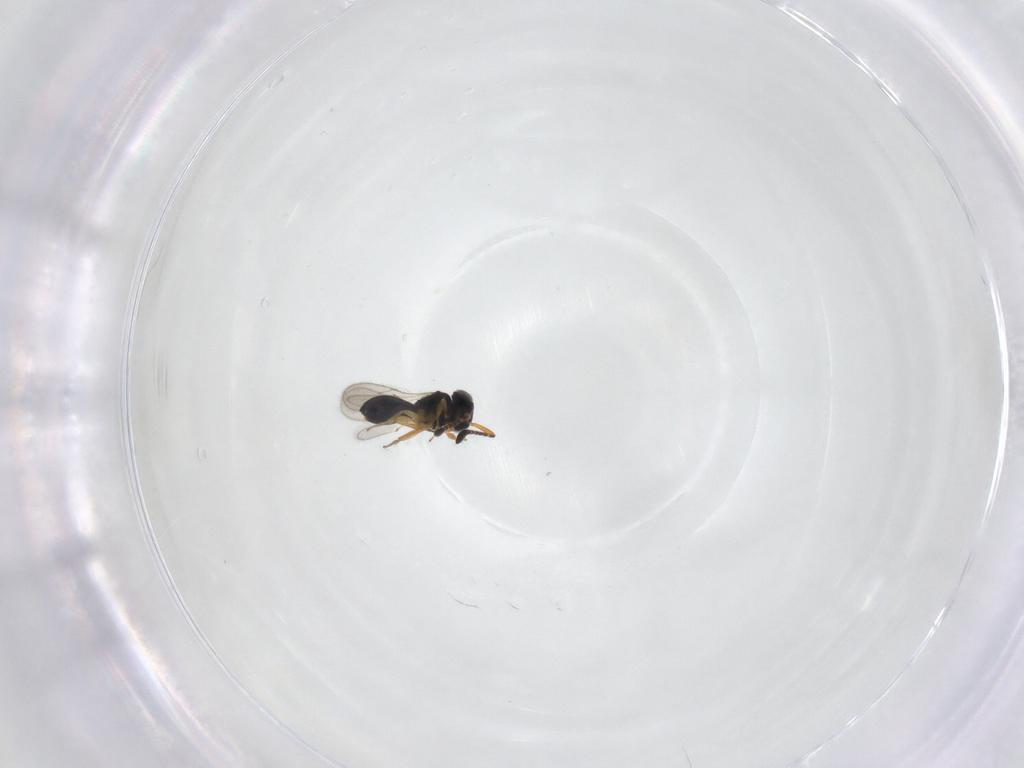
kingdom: Animalia
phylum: Arthropoda
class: Insecta
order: Hymenoptera
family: Scelionidae
